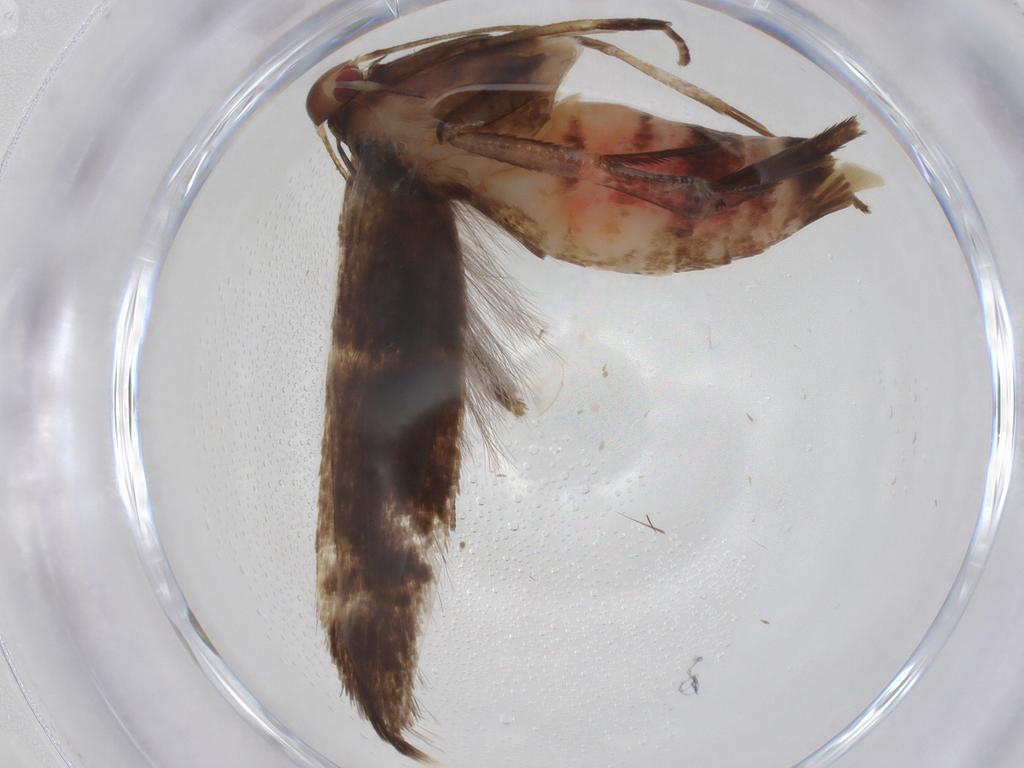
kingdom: Animalia
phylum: Arthropoda
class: Insecta
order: Lepidoptera
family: Cosmopterigidae
